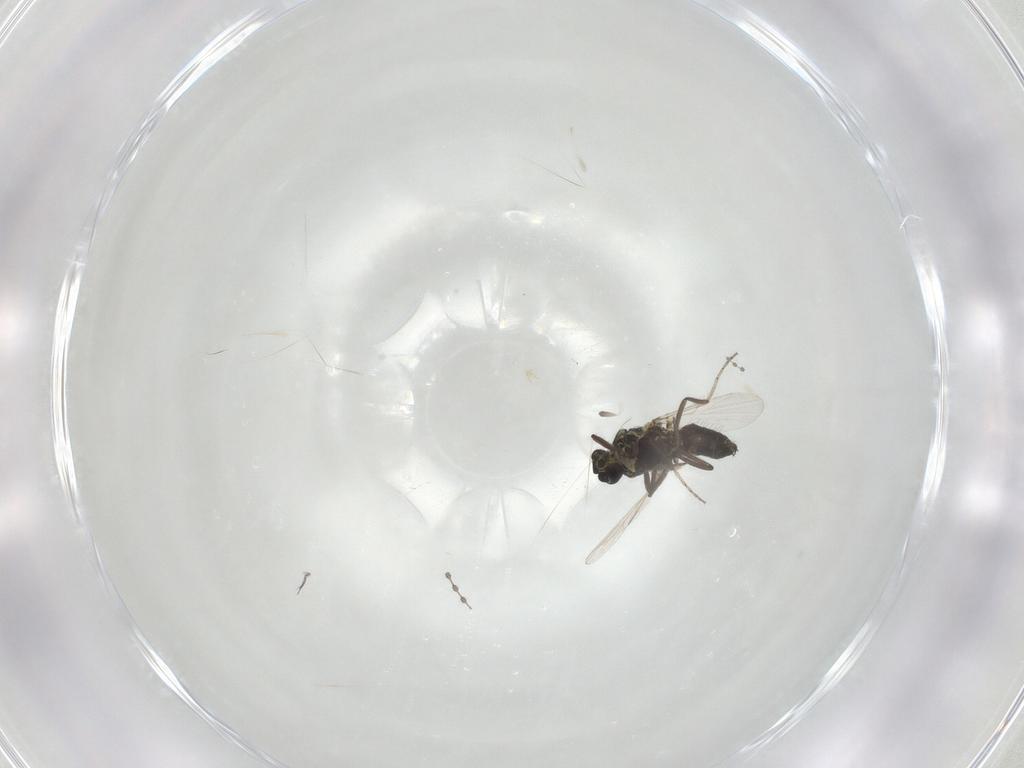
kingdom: Animalia
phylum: Arthropoda
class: Insecta
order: Diptera
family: Ceratopogonidae
